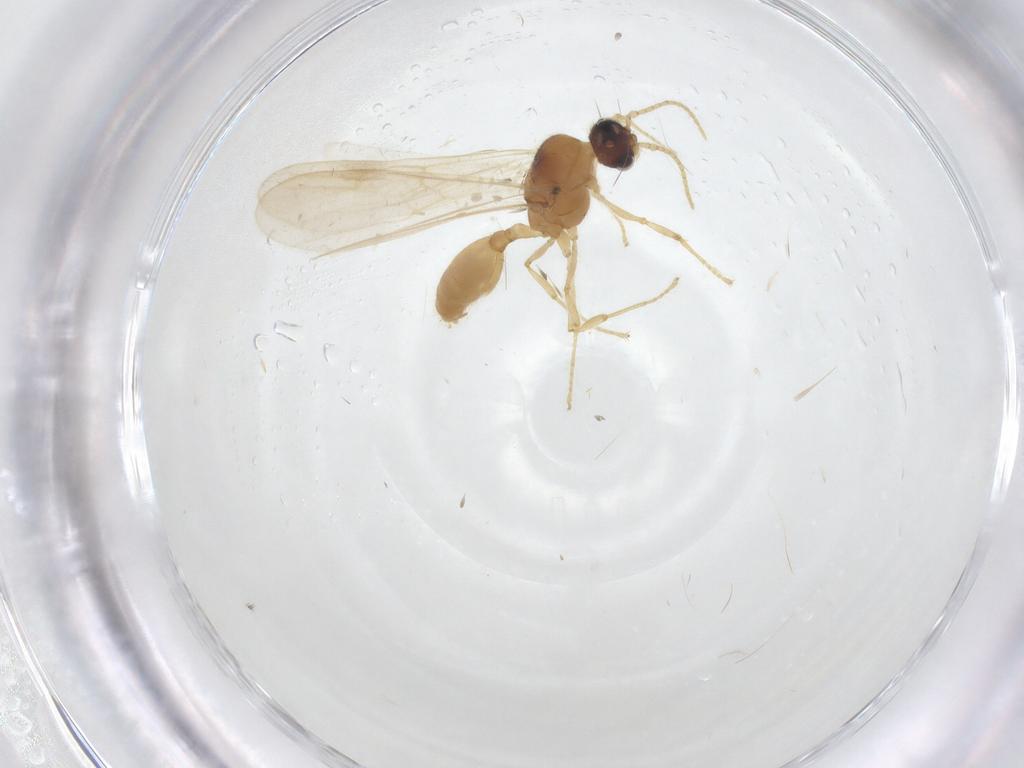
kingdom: Animalia
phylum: Arthropoda
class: Insecta
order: Hymenoptera
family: Formicidae
